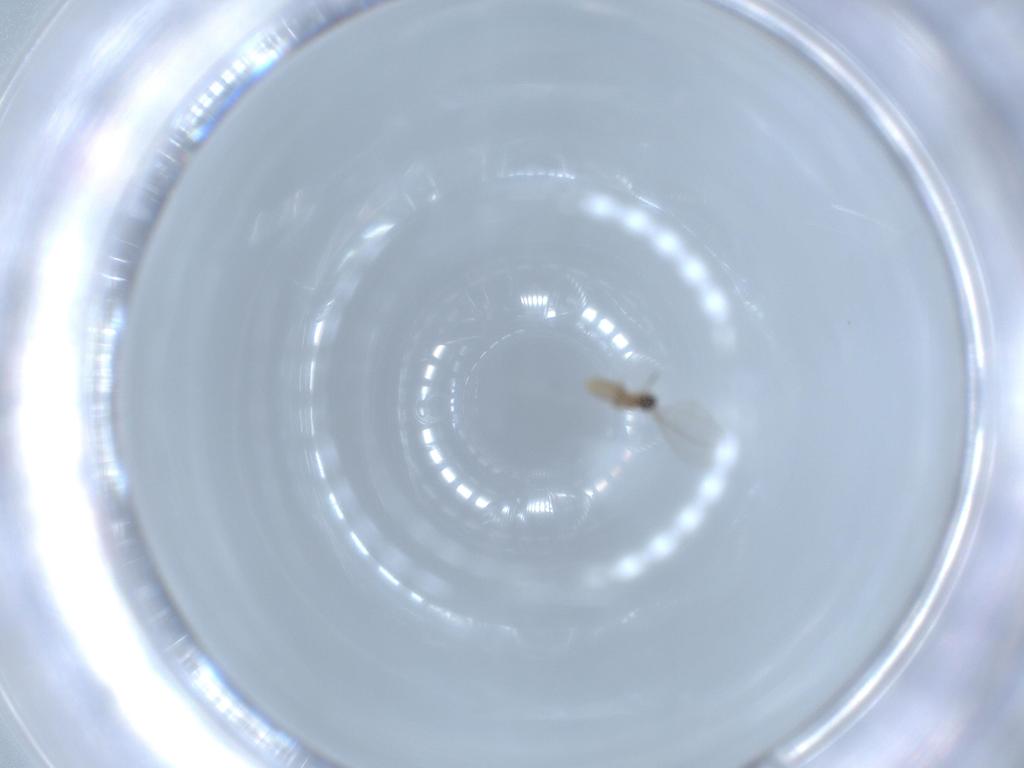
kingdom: Animalia
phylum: Arthropoda
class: Insecta
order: Diptera
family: Cecidomyiidae
